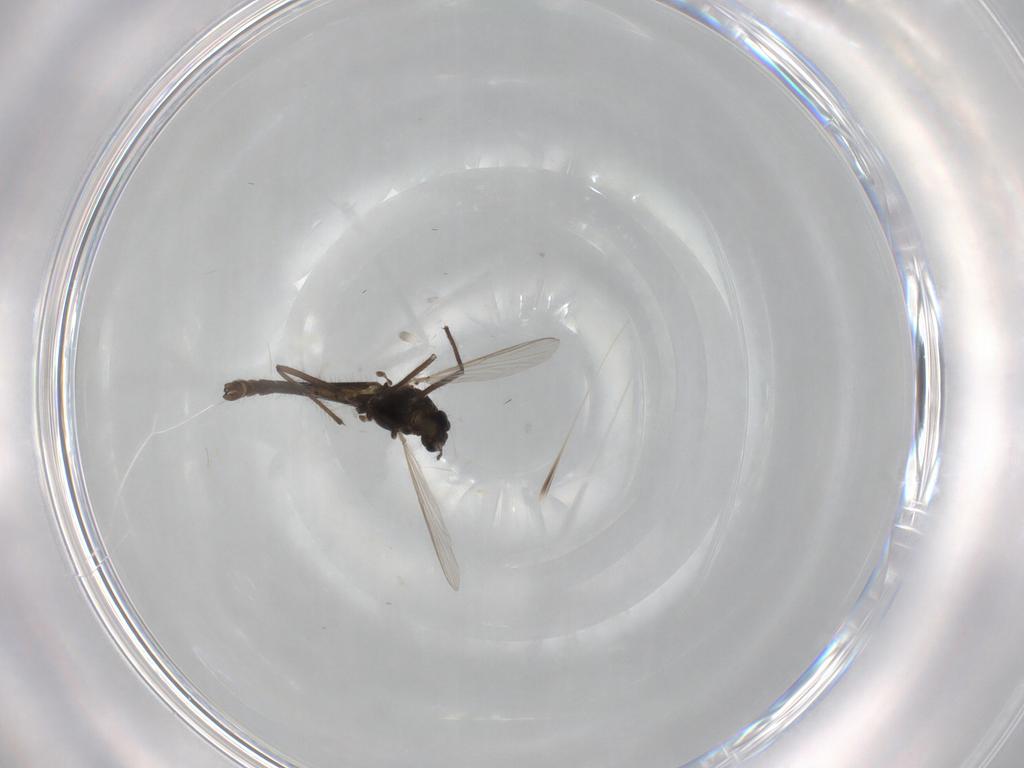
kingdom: Animalia
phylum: Arthropoda
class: Insecta
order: Diptera
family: Chironomidae
